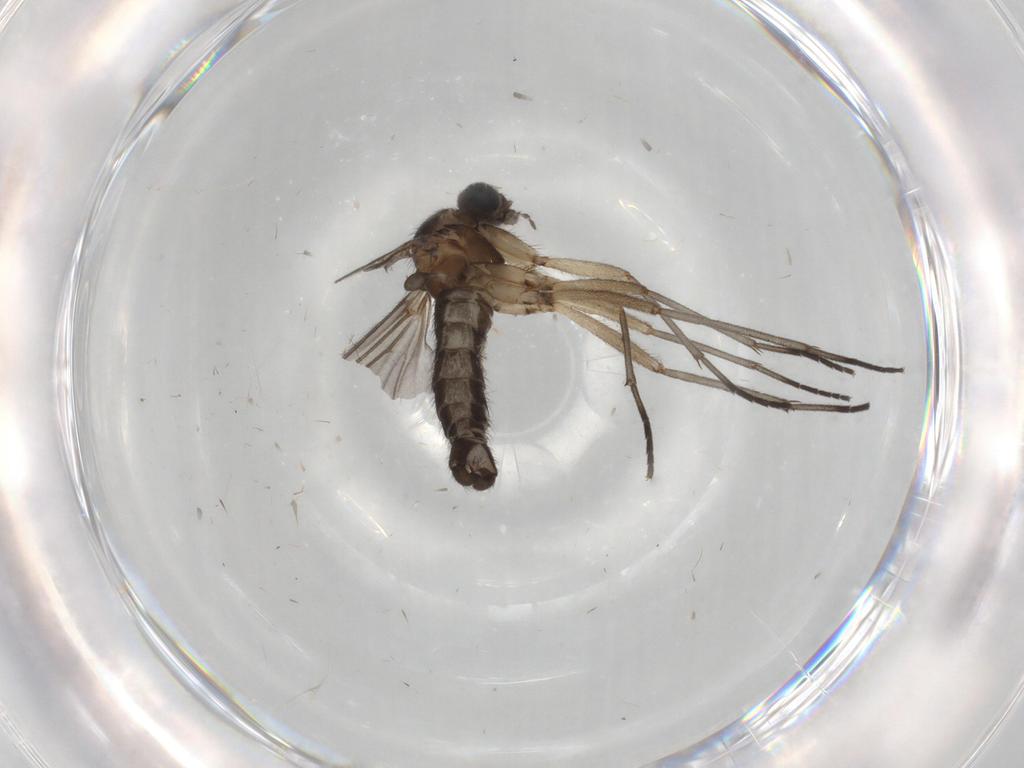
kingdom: Animalia
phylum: Arthropoda
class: Insecta
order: Diptera
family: Sciaridae
